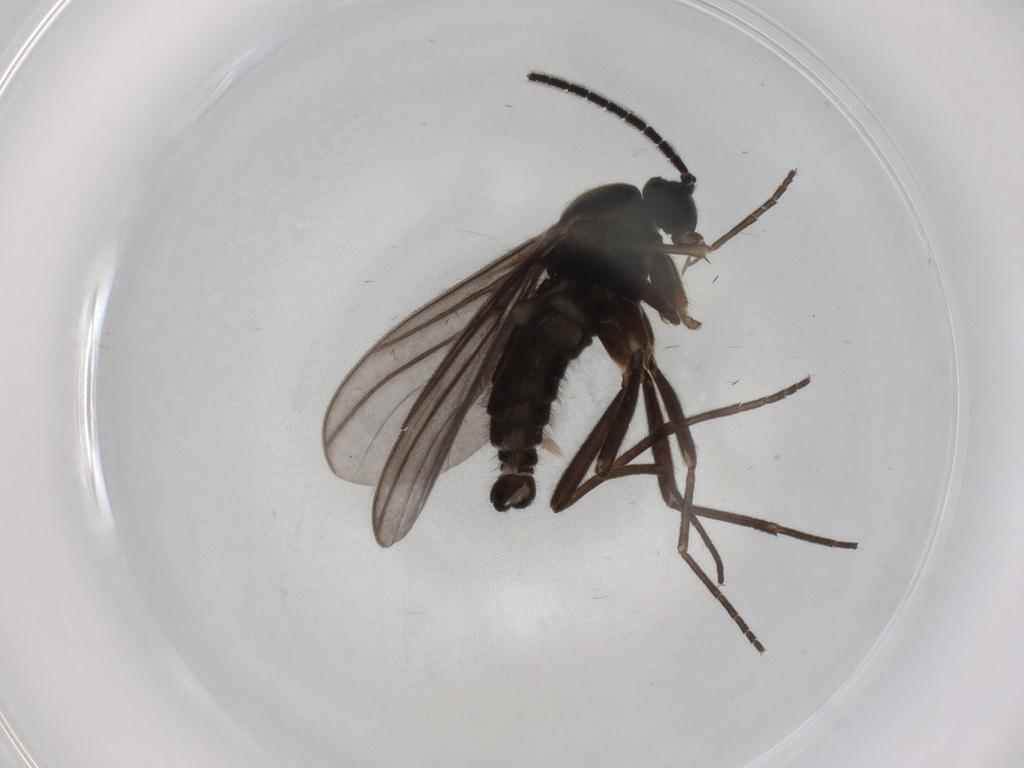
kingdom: Animalia
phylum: Arthropoda
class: Insecta
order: Diptera
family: Sciaridae
